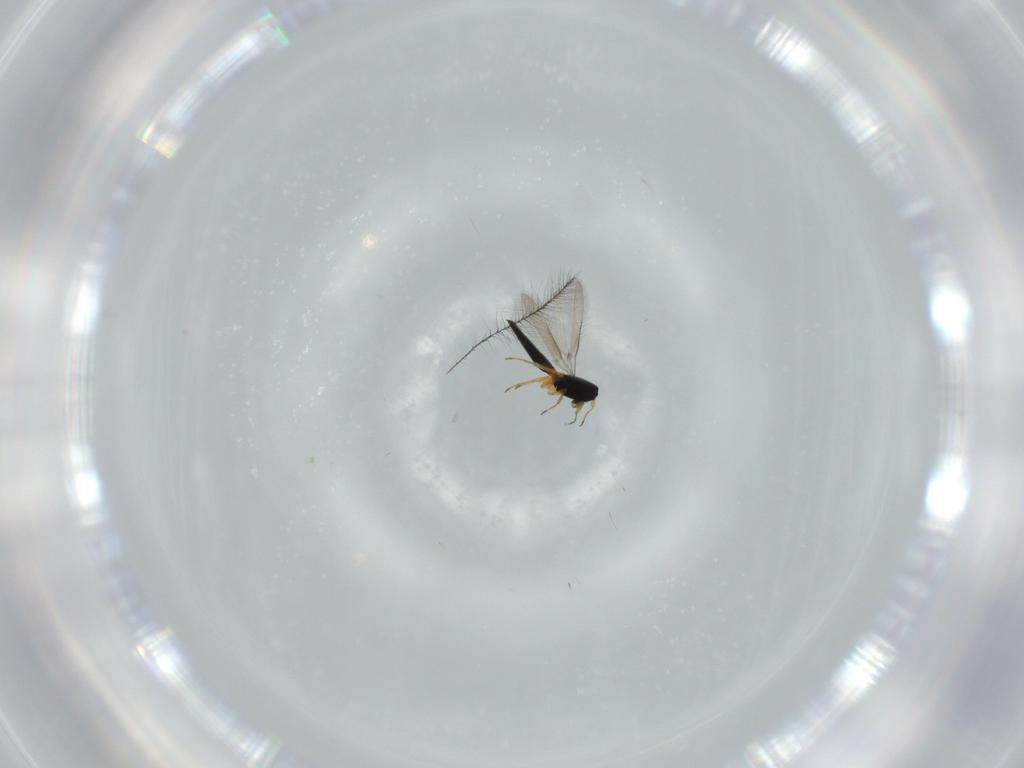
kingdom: Animalia
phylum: Arthropoda
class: Insecta
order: Hymenoptera
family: Scelionidae
